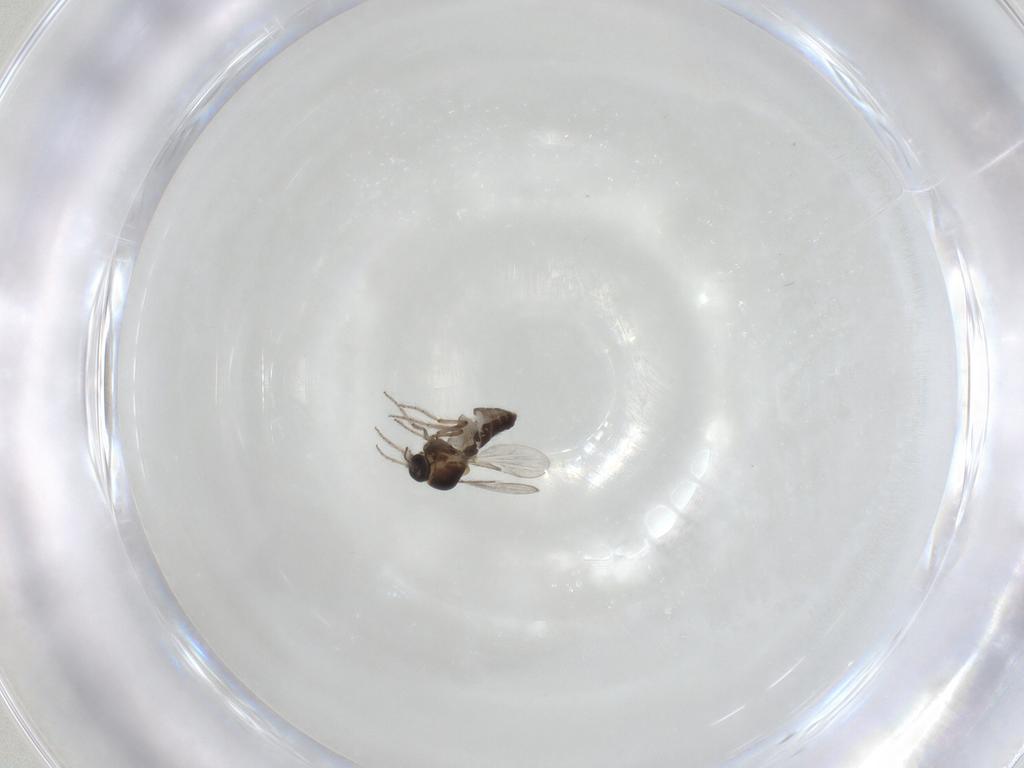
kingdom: Animalia
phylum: Arthropoda
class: Insecta
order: Diptera
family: Ceratopogonidae
